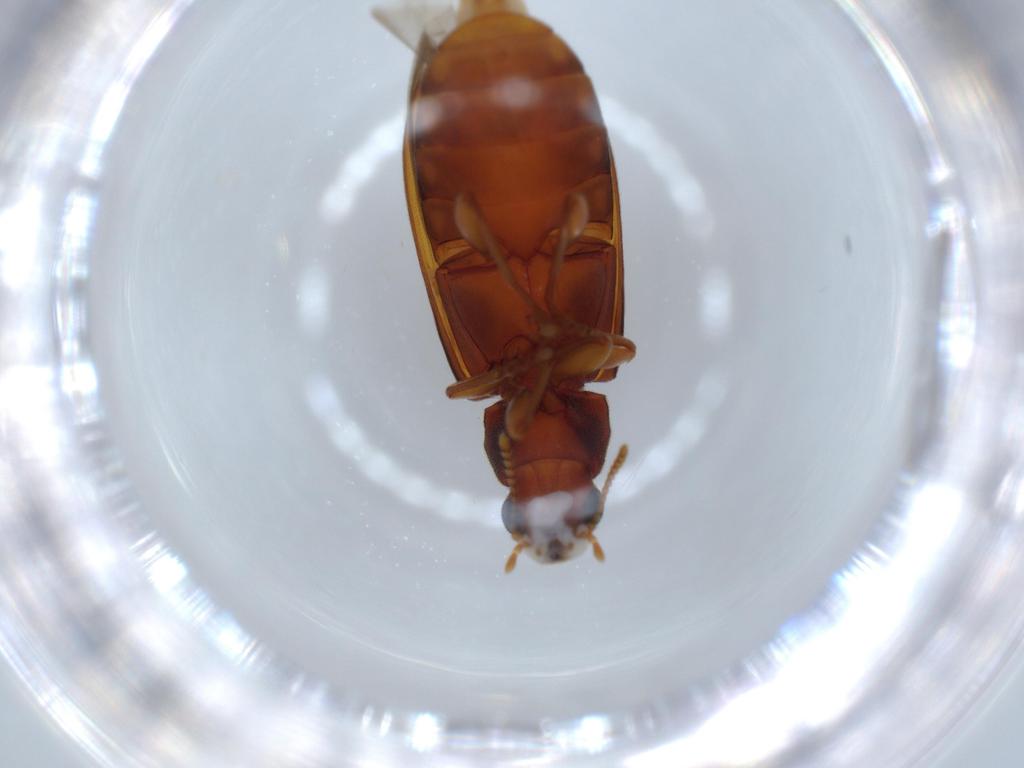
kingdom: Animalia
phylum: Arthropoda
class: Insecta
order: Coleoptera
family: Mycteridae
